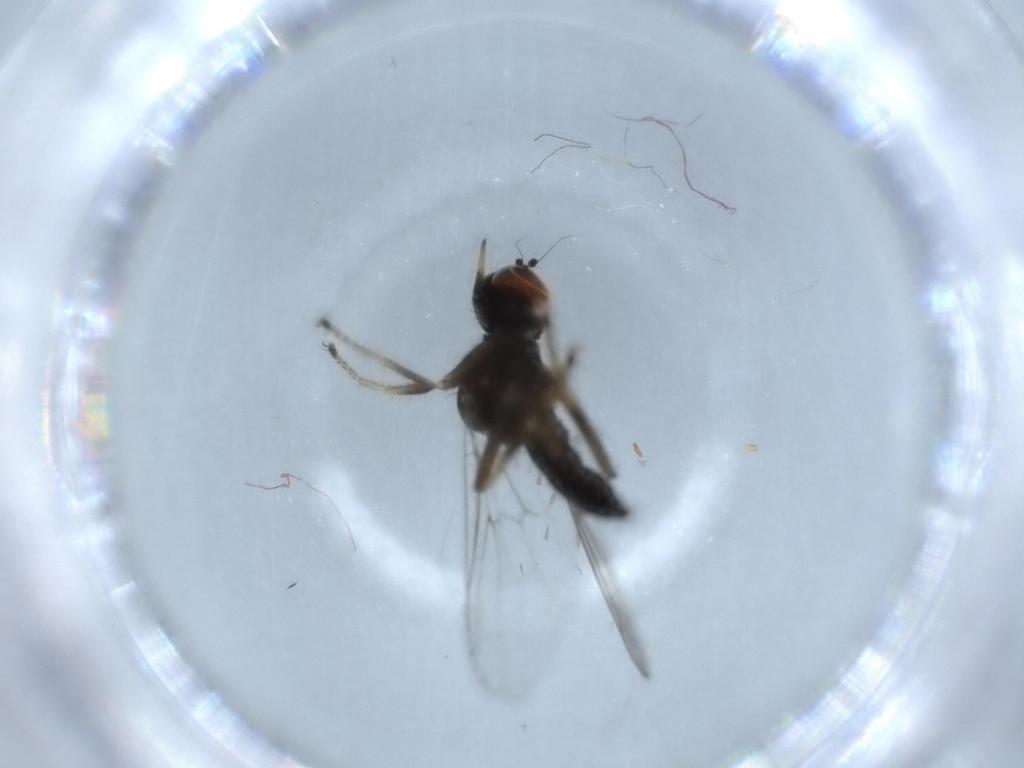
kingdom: Animalia
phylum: Arthropoda
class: Insecta
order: Diptera
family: Hybotidae
